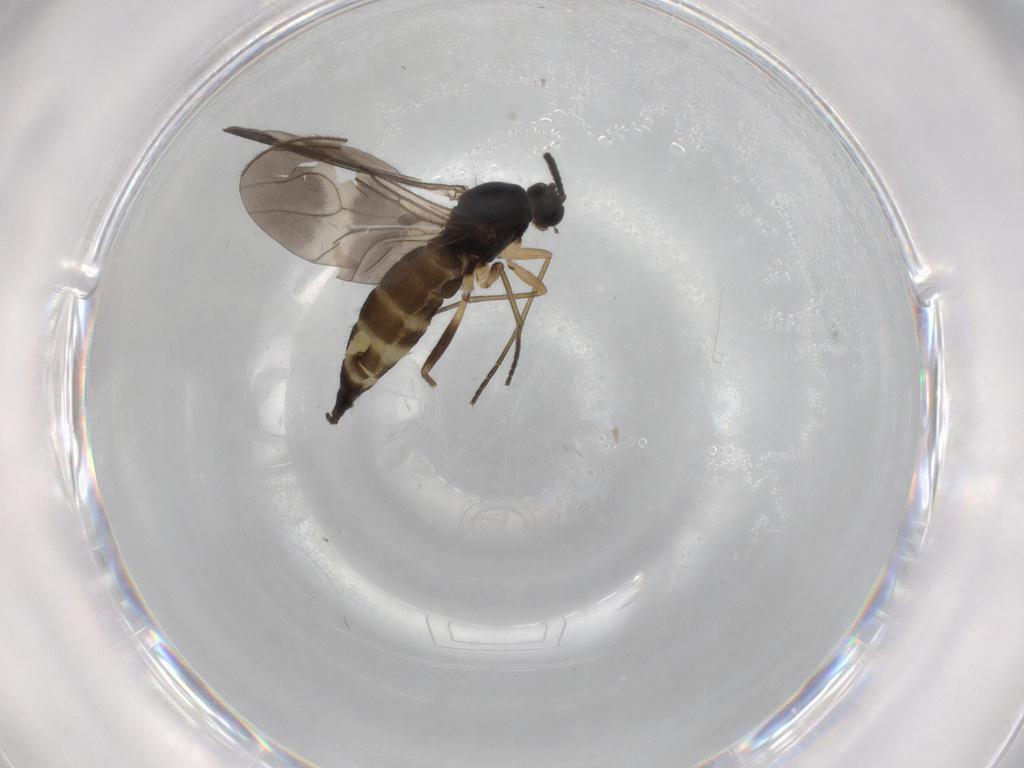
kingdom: Animalia
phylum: Arthropoda
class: Insecta
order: Diptera
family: Sciaridae
